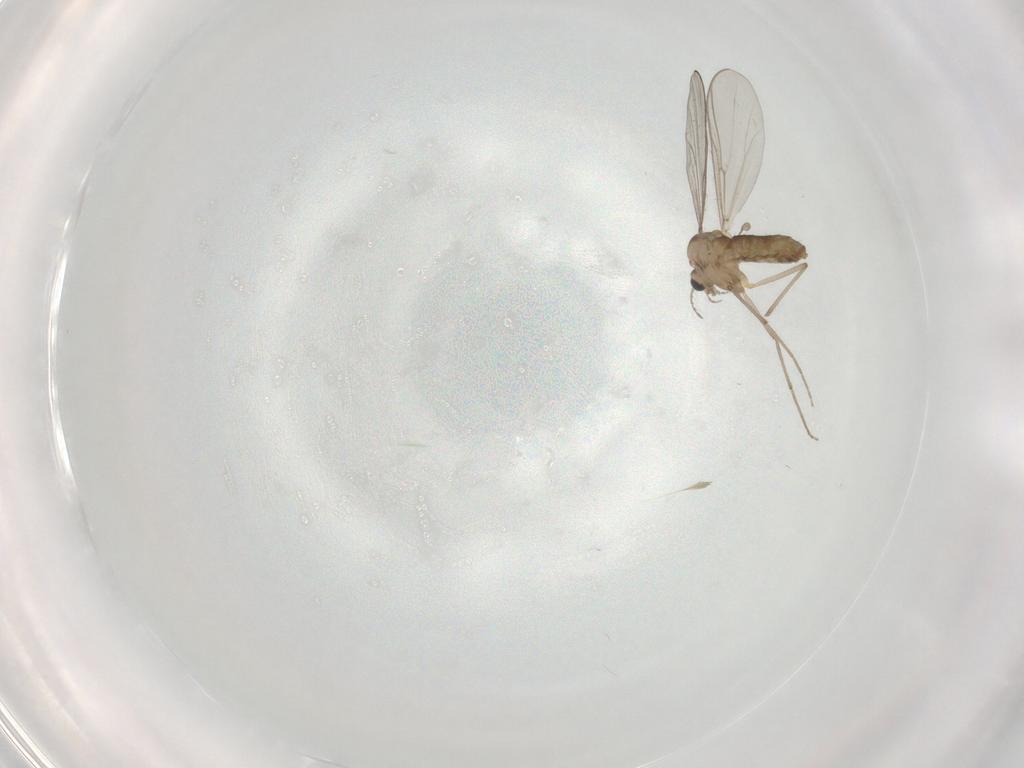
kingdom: Animalia
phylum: Arthropoda
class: Insecta
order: Diptera
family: Chironomidae
